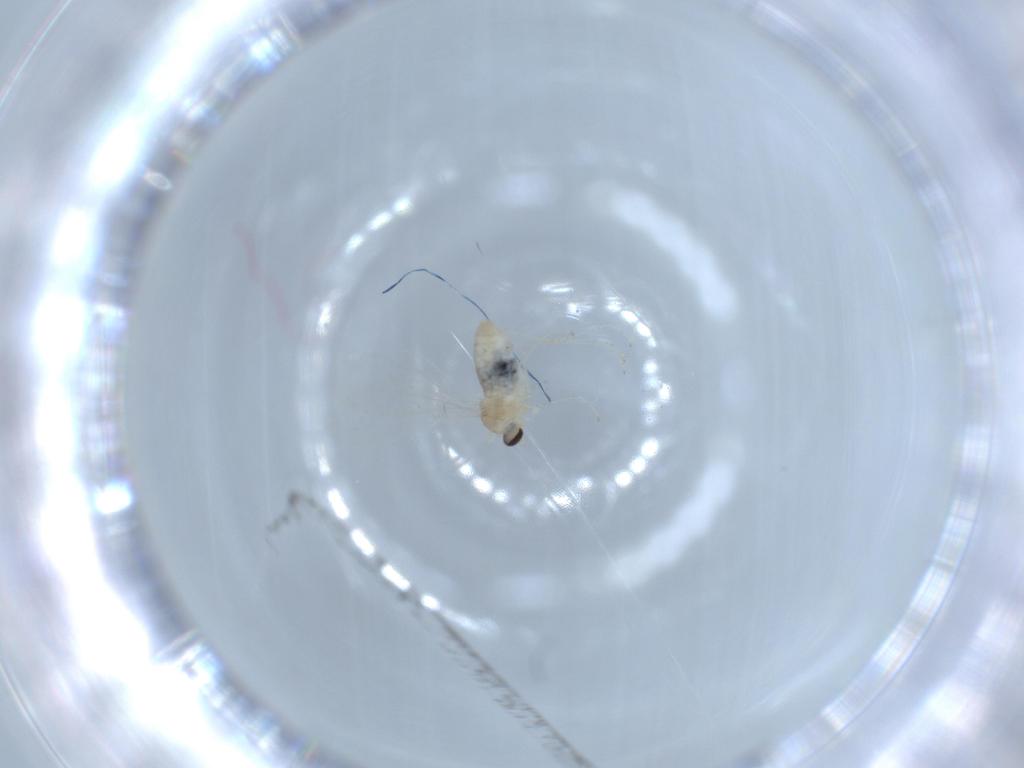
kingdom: Animalia
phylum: Arthropoda
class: Insecta
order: Diptera
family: Cecidomyiidae
